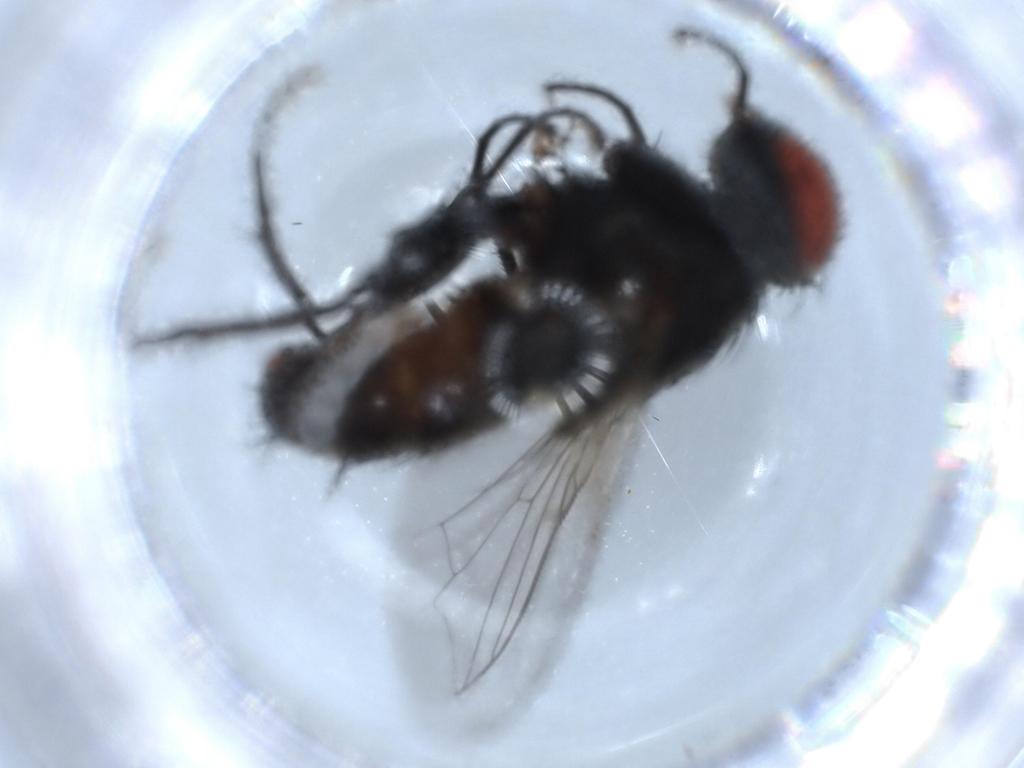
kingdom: Animalia
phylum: Arthropoda
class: Insecta
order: Diptera
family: Sarcophagidae
